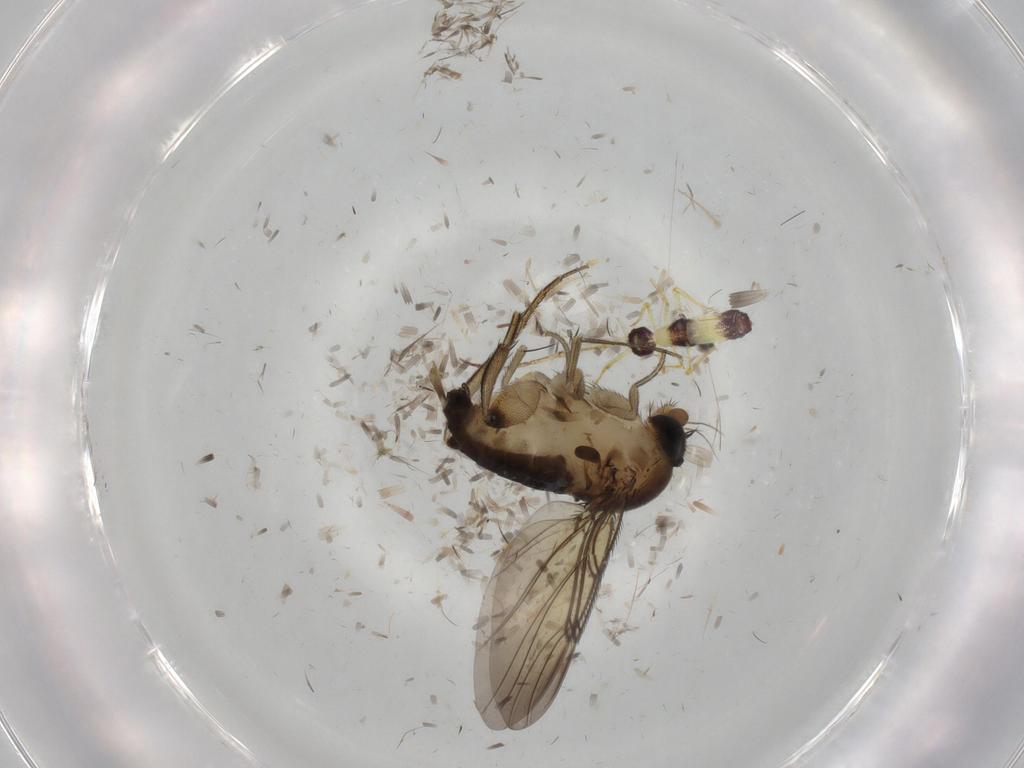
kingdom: Animalia
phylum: Arthropoda
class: Insecta
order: Diptera
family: Phoridae
